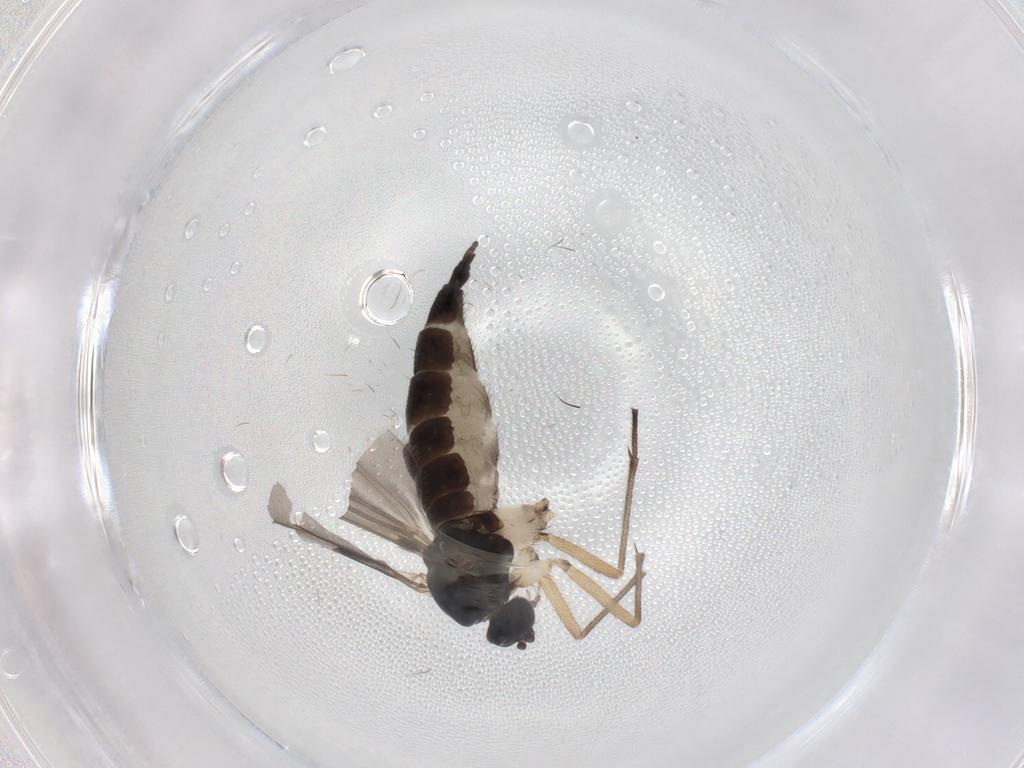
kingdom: Animalia
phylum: Arthropoda
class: Insecta
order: Diptera
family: Sciaridae
